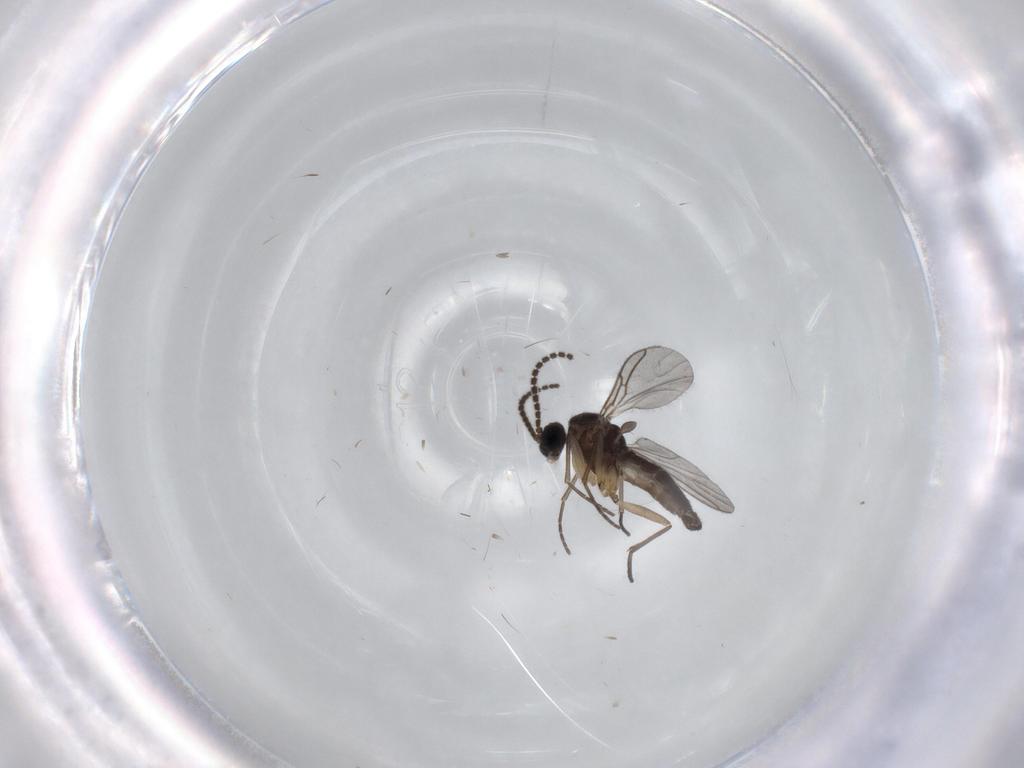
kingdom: Animalia
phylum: Arthropoda
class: Insecta
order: Diptera
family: Sciaridae
